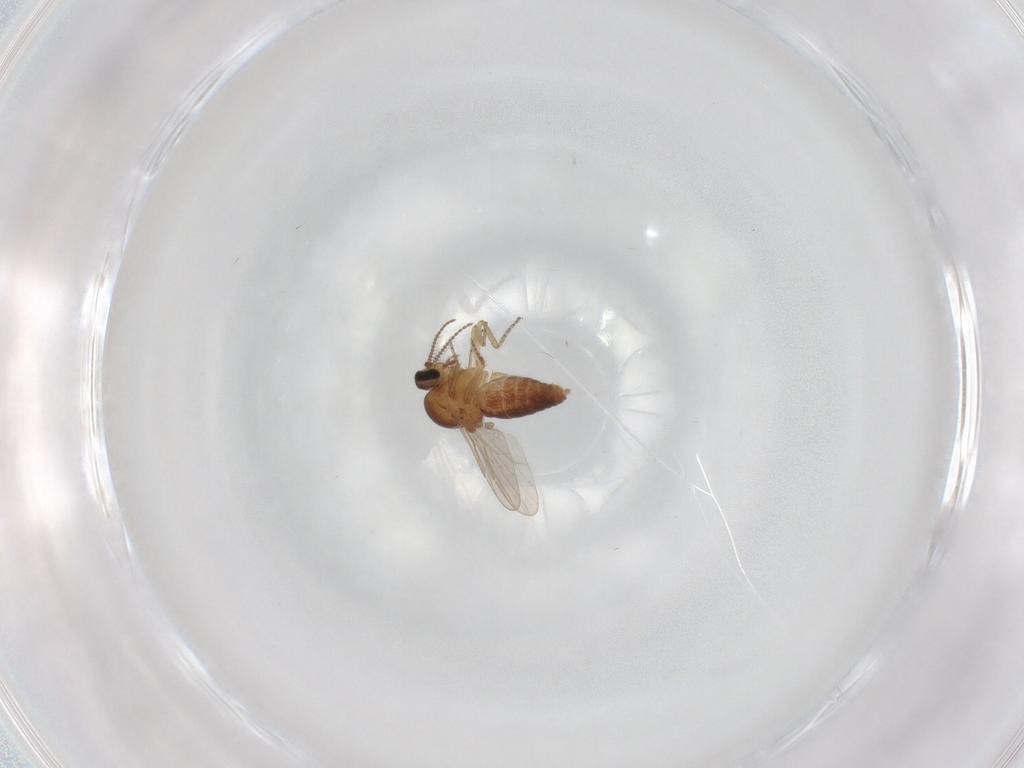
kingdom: Animalia
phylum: Arthropoda
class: Insecta
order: Diptera
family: Ceratopogonidae
